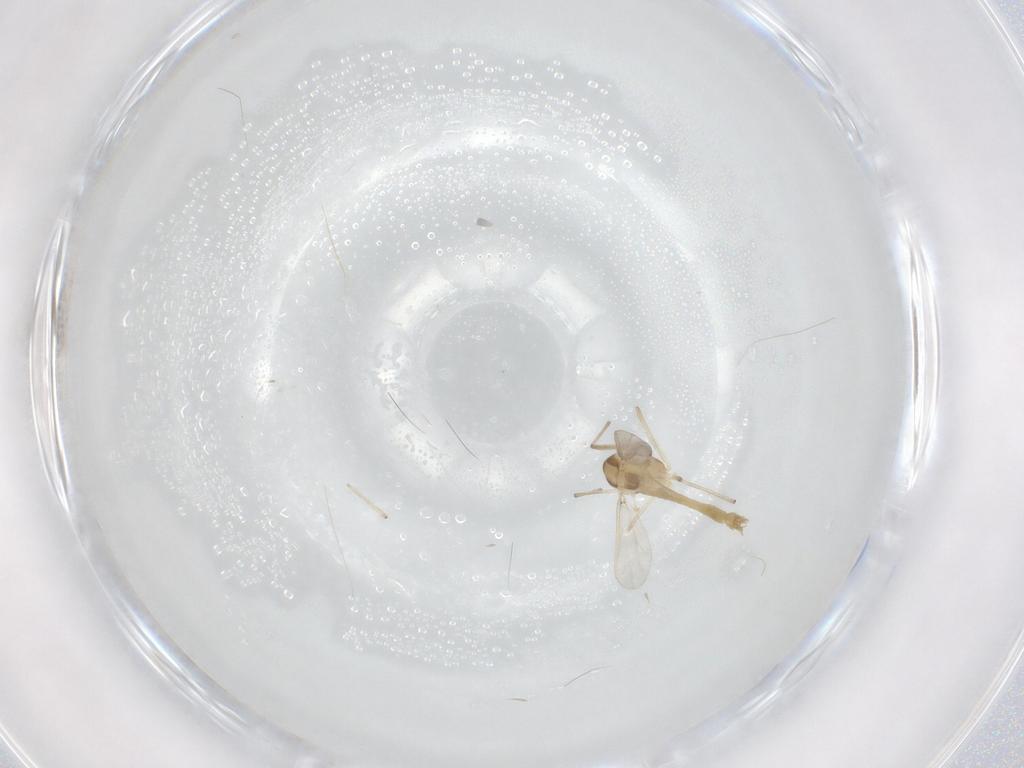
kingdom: Animalia
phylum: Arthropoda
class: Insecta
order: Diptera
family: Chironomidae
